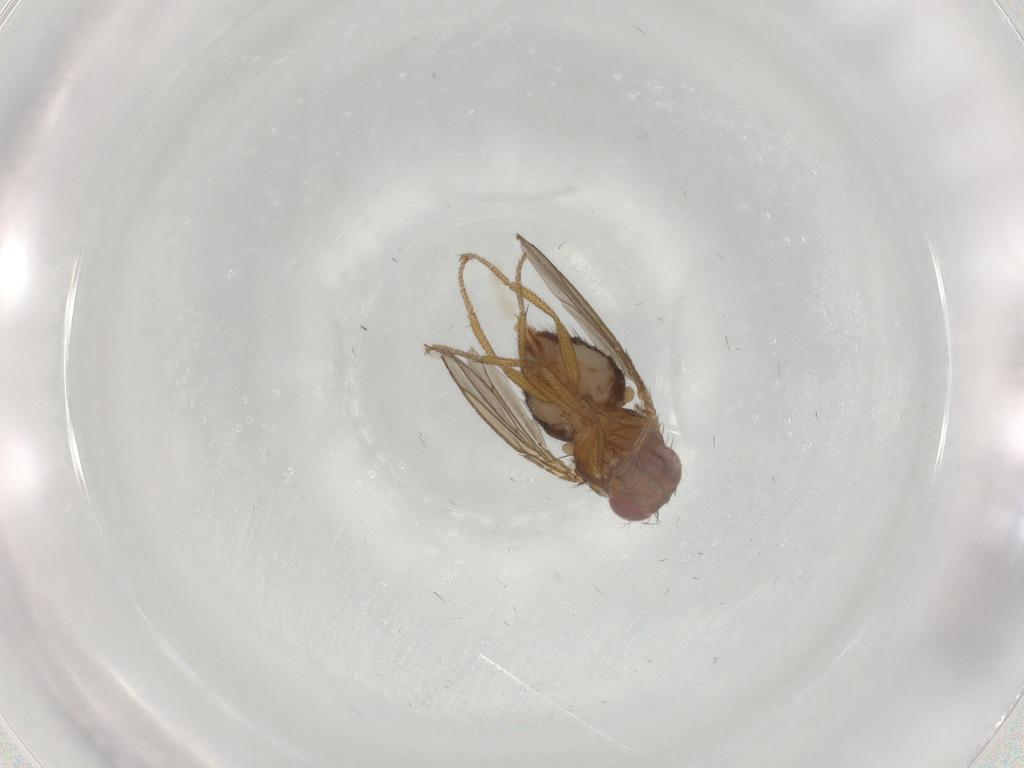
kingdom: Animalia
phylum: Arthropoda
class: Insecta
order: Diptera
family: Drosophilidae
